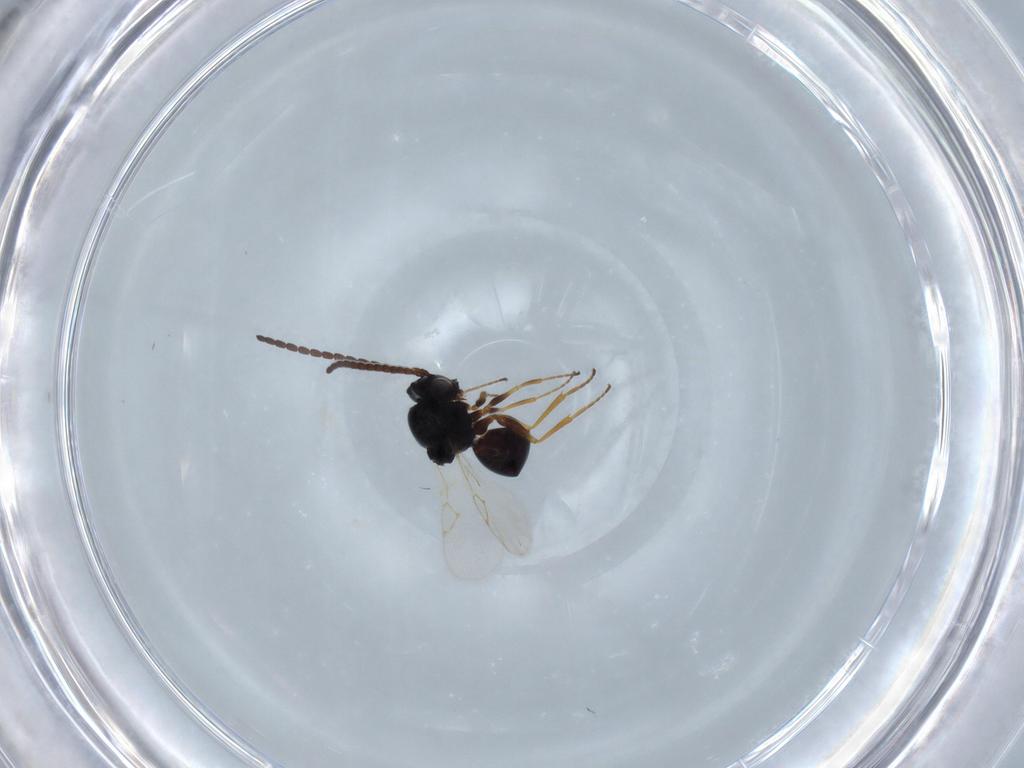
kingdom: Animalia
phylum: Arthropoda
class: Insecta
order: Hymenoptera
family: Figitidae
